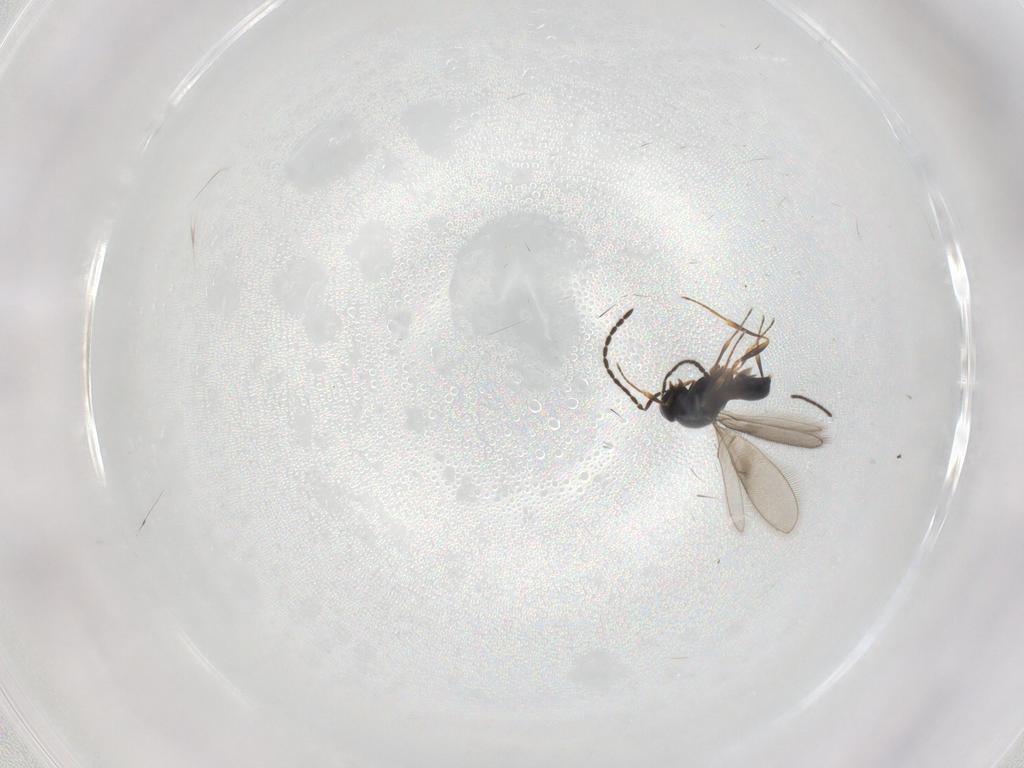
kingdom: Animalia
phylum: Arthropoda
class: Insecta
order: Hymenoptera
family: Scelionidae
